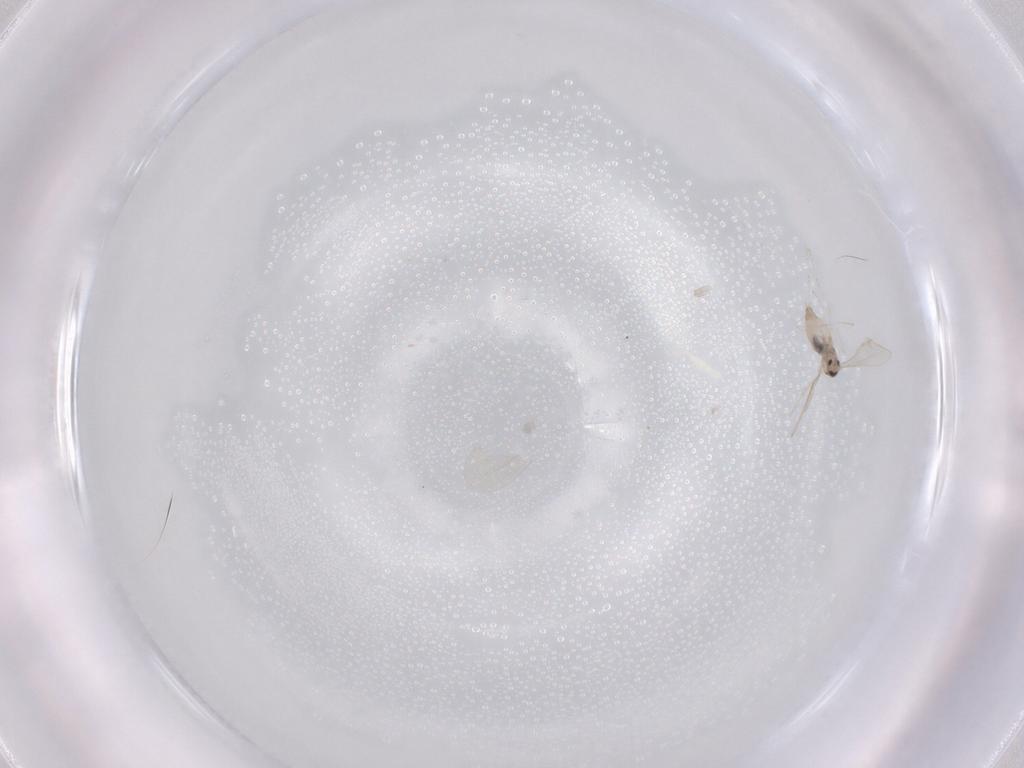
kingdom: Animalia
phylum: Arthropoda
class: Insecta
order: Diptera
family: Cecidomyiidae
